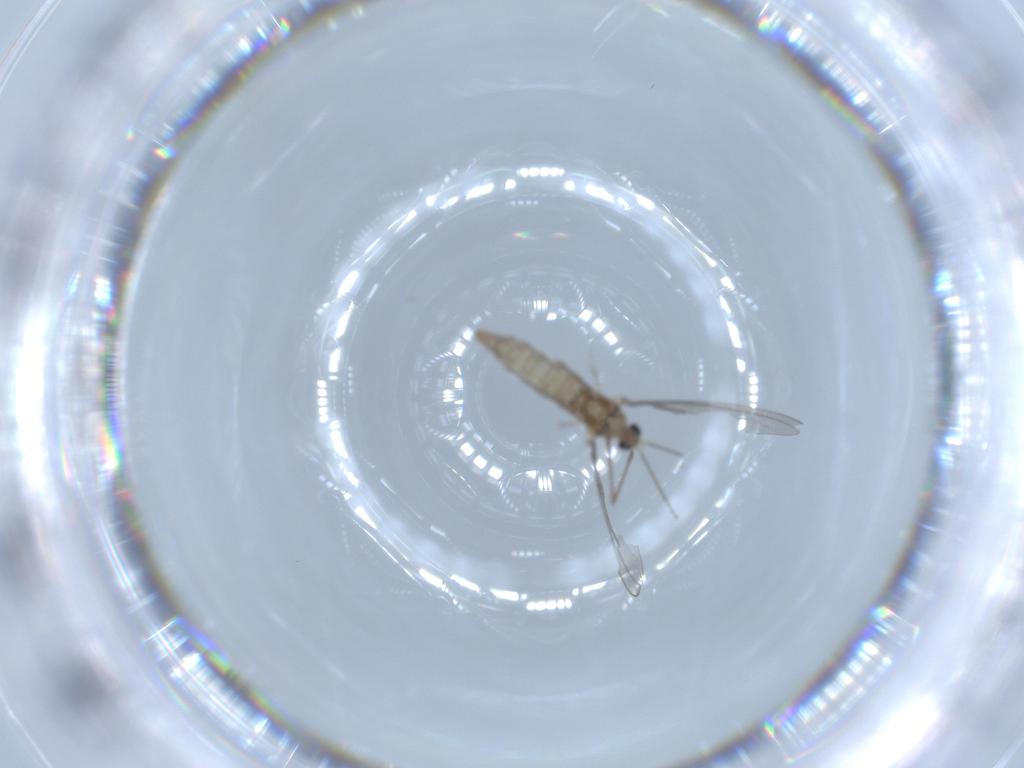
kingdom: Animalia
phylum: Arthropoda
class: Insecta
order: Diptera
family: Cecidomyiidae
